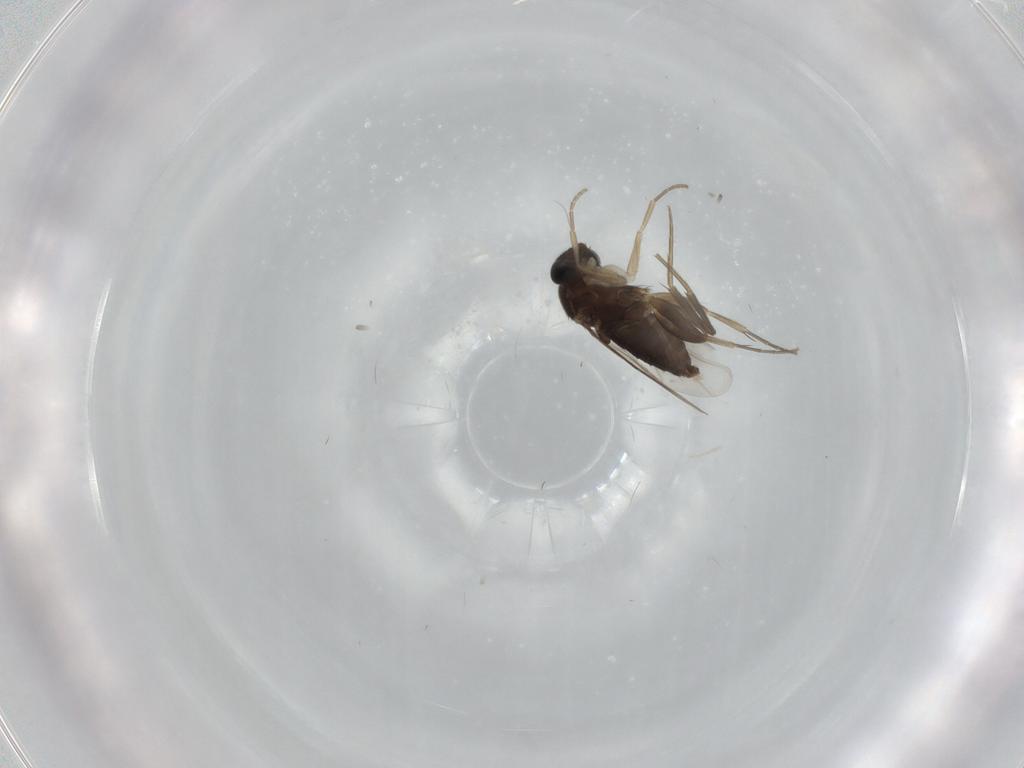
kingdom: Animalia
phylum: Arthropoda
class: Insecta
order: Diptera
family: Phoridae
